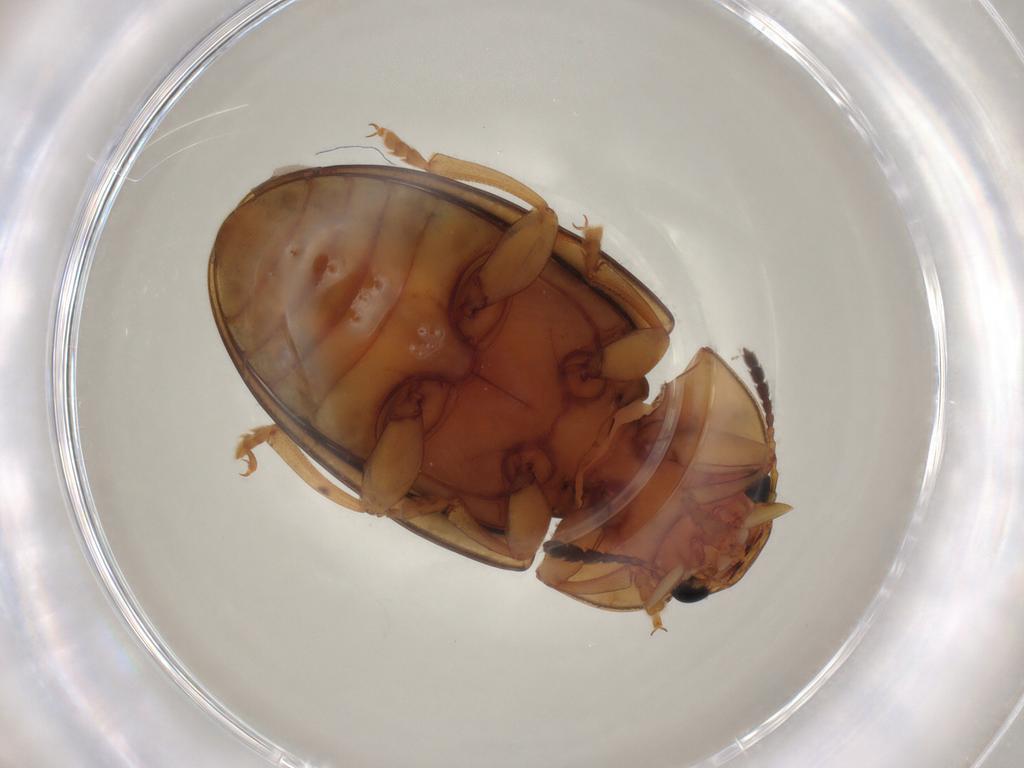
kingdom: Animalia
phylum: Arthropoda
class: Insecta
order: Coleoptera
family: Erotylidae
